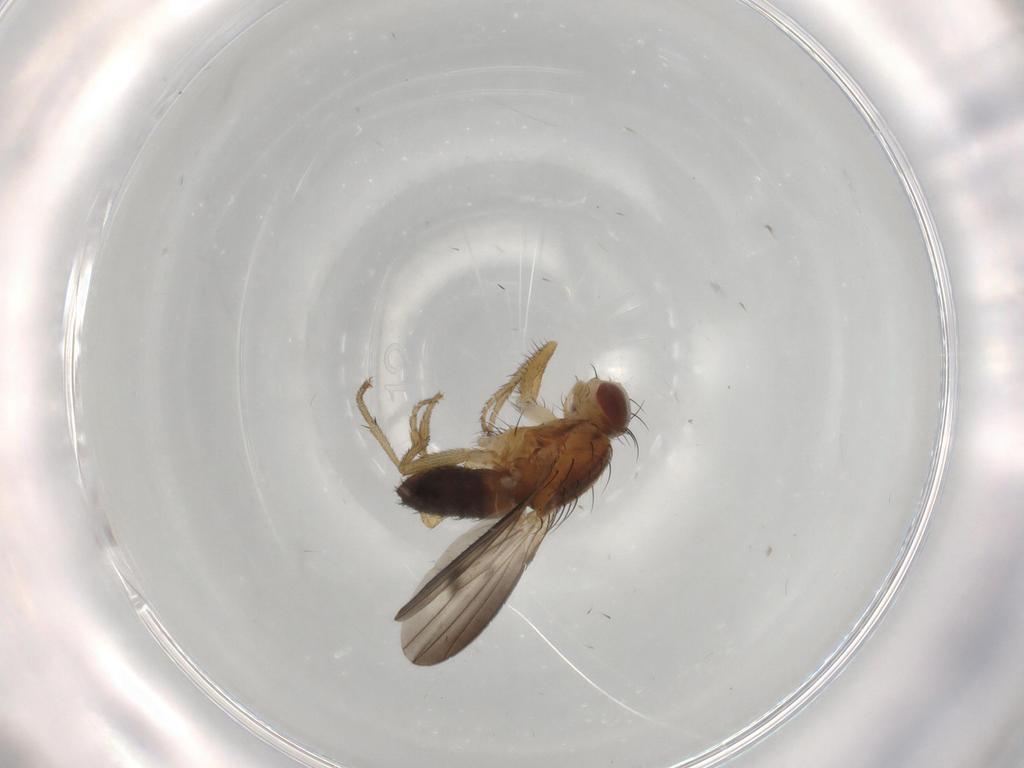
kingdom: Animalia
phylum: Arthropoda
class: Insecta
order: Diptera
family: Heleomyzidae
